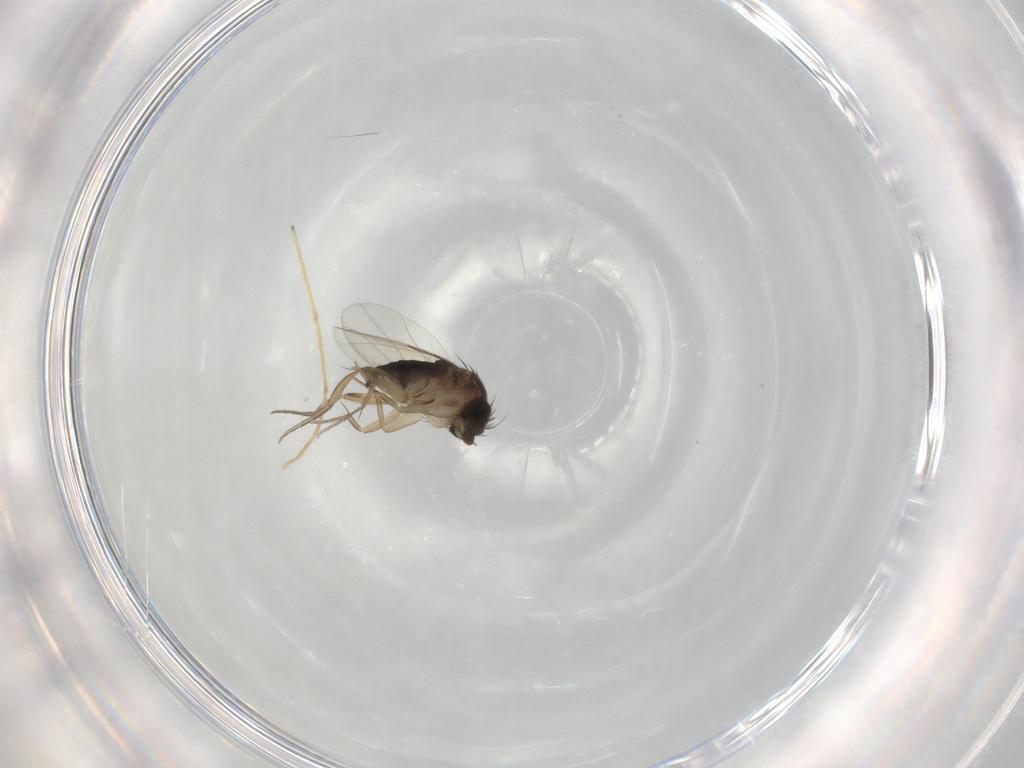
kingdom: Animalia
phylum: Arthropoda
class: Insecta
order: Diptera
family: Phoridae
